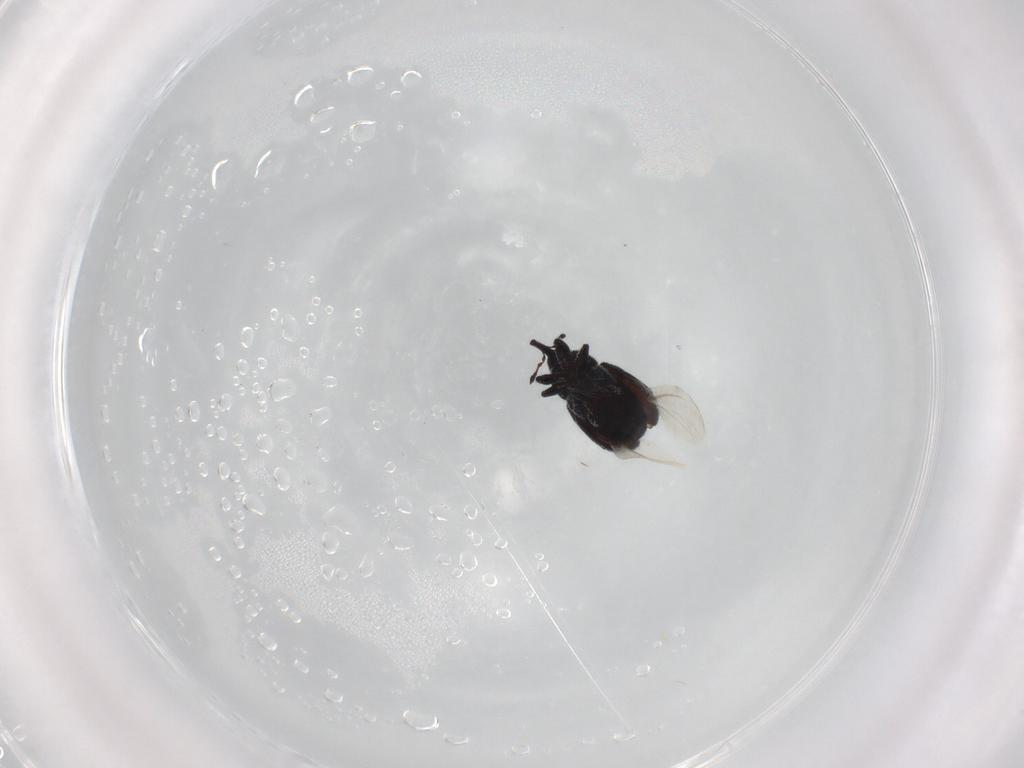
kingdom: Animalia
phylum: Arthropoda
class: Insecta
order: Coleoptera
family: Curculionidae
